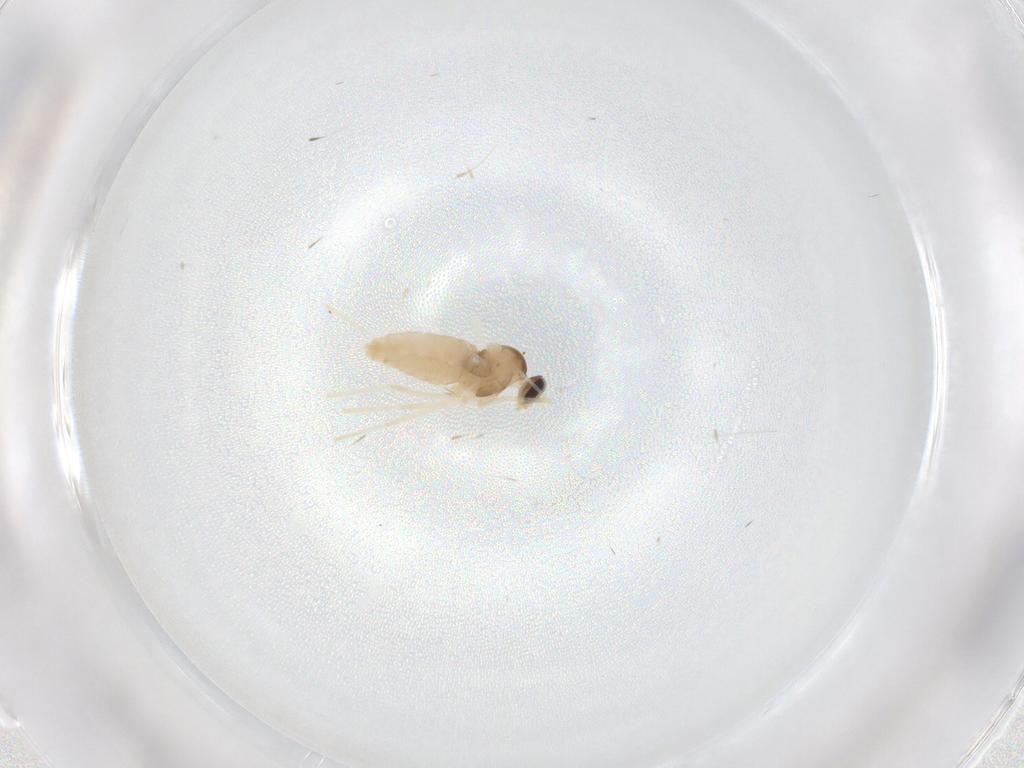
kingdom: Animalia
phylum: Arthropoda
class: Insecta
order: Diptera
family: Cecidomyiidae
